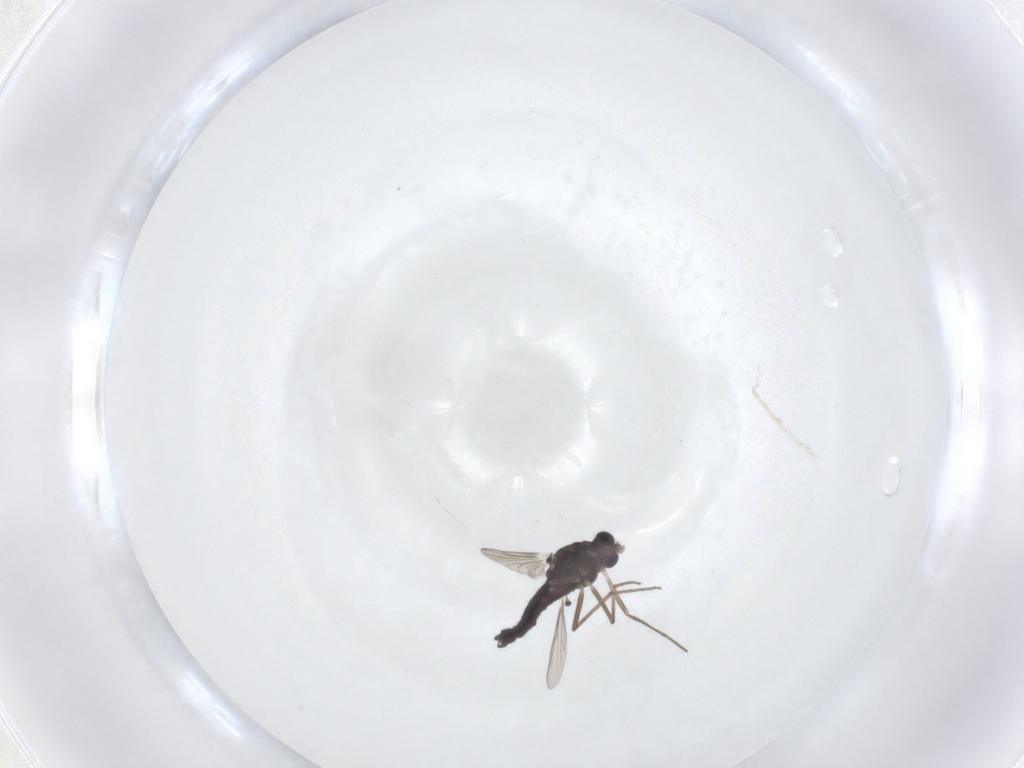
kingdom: Animalia
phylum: Arthropoda
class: Insecta
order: Diptera
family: Chironomidae
